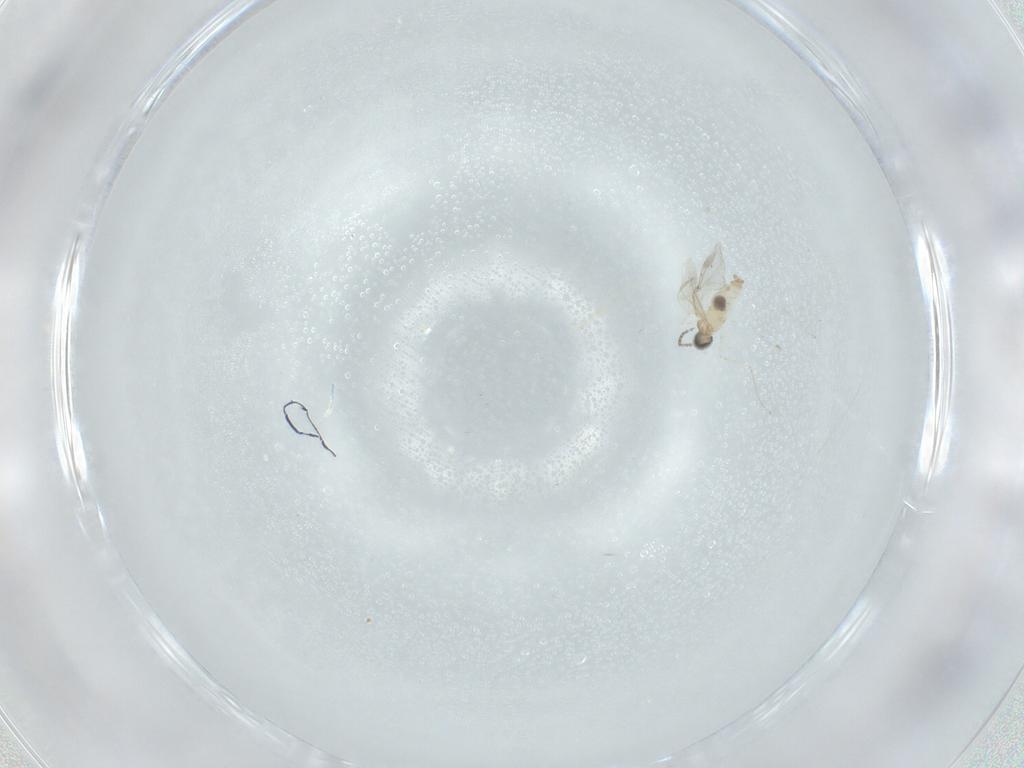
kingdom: Animalia
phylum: Arthropoda
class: Insecta
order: Diptera
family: Cecidomyiidae
